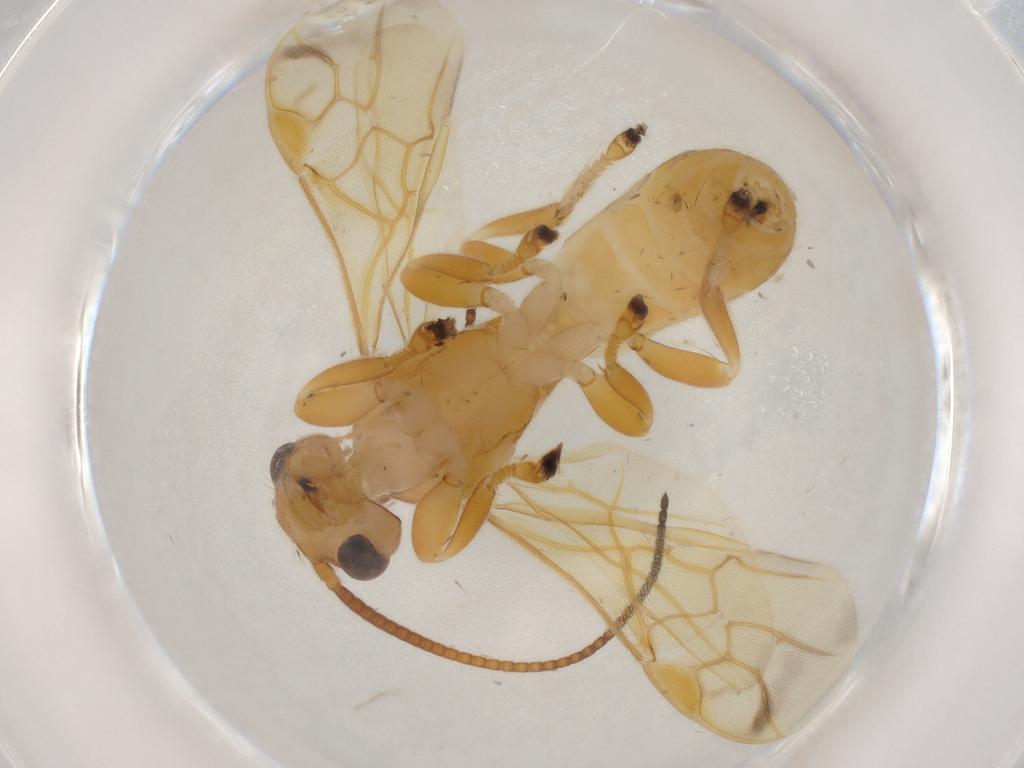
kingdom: Animalia
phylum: Arthropoda
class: Insecta
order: Hymenoptera
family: Braconidae
